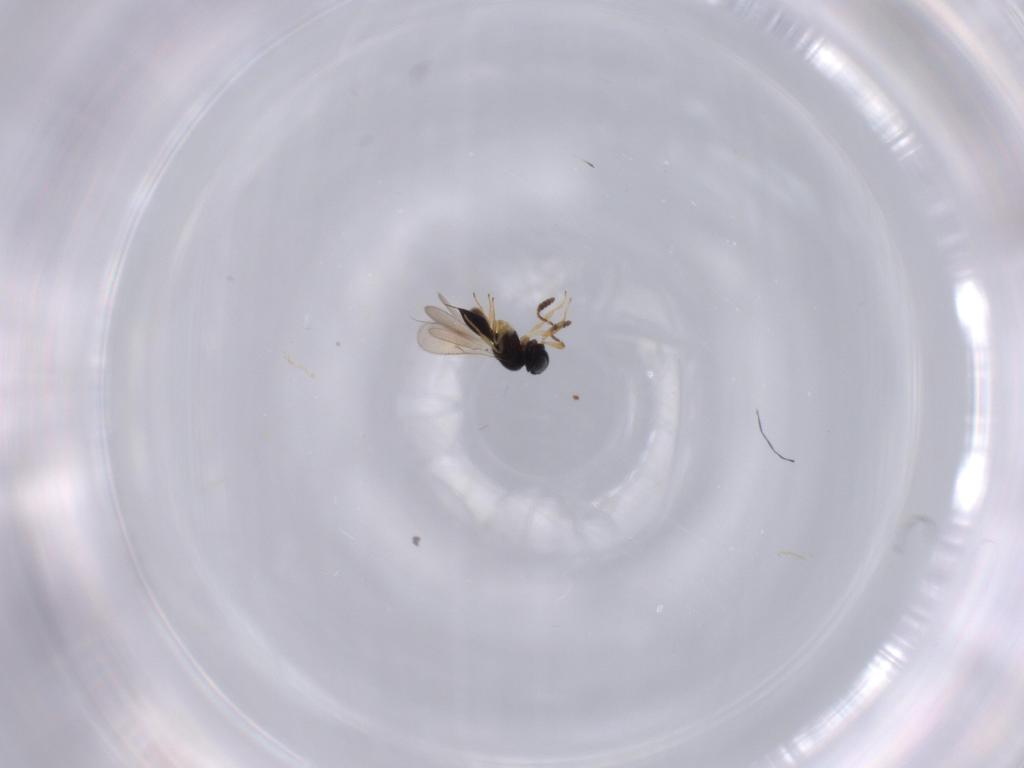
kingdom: Animalia
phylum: Arthropoda
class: Insecta
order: Hymenoptera
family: Scelionidae
